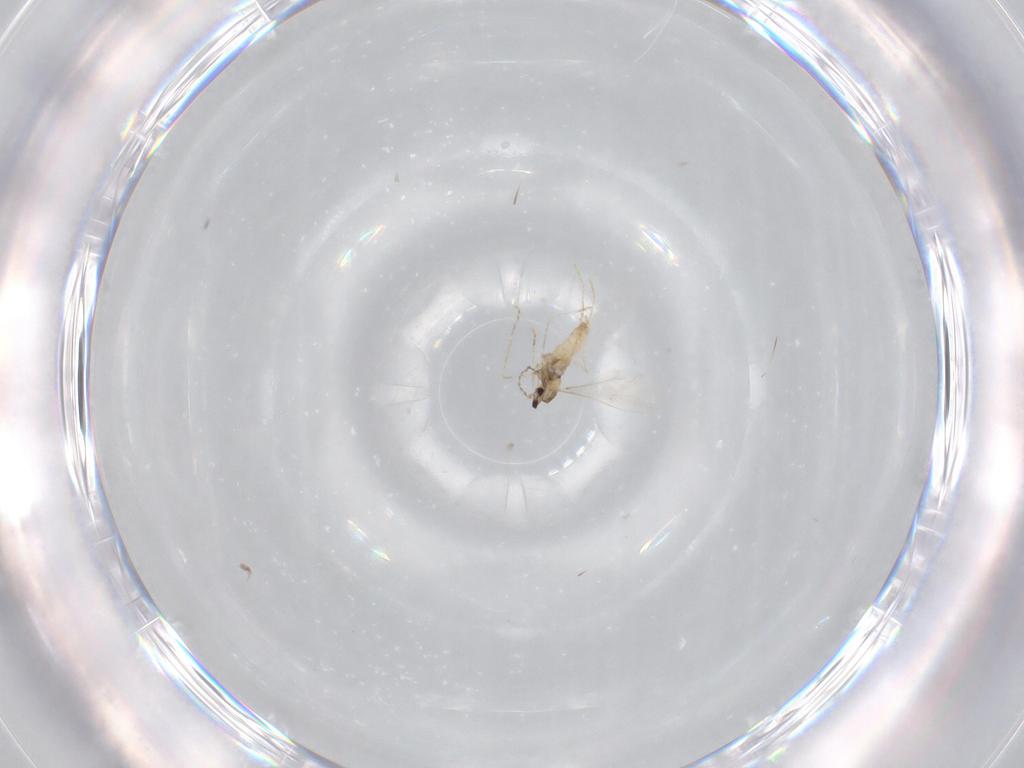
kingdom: Animalia
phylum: Arthropoda
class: Insecta
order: Diptera
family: Cecidomyiidae
